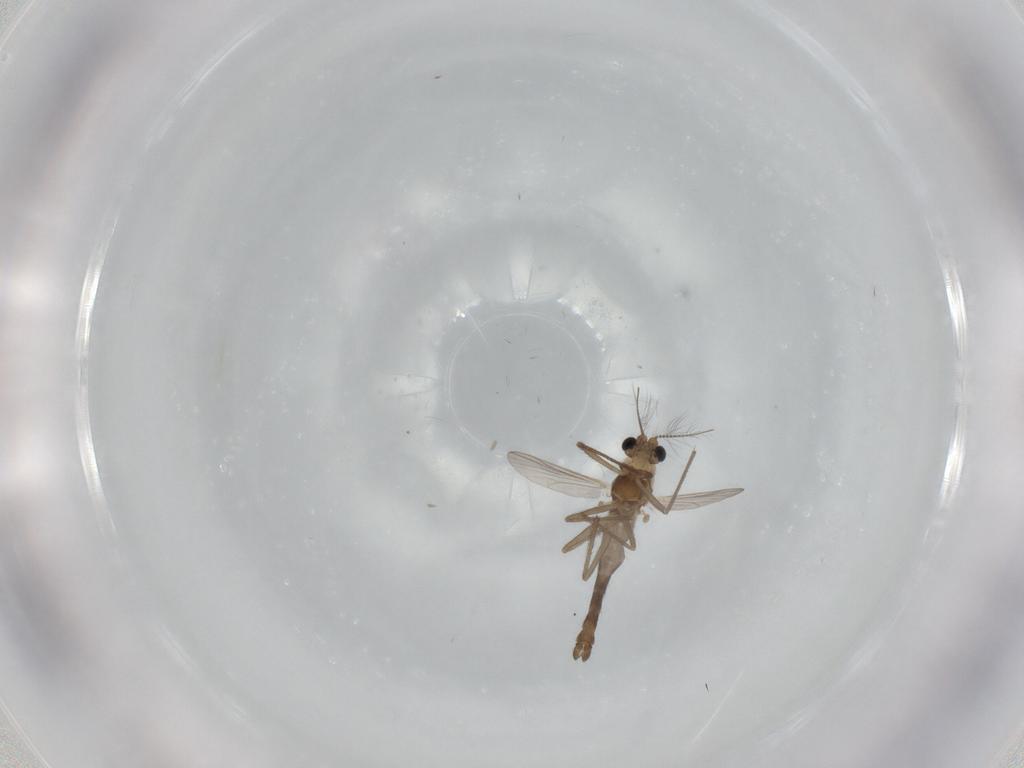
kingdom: Animalia
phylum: Arthropoda
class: Insecta
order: Diptera
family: Chironomidae
